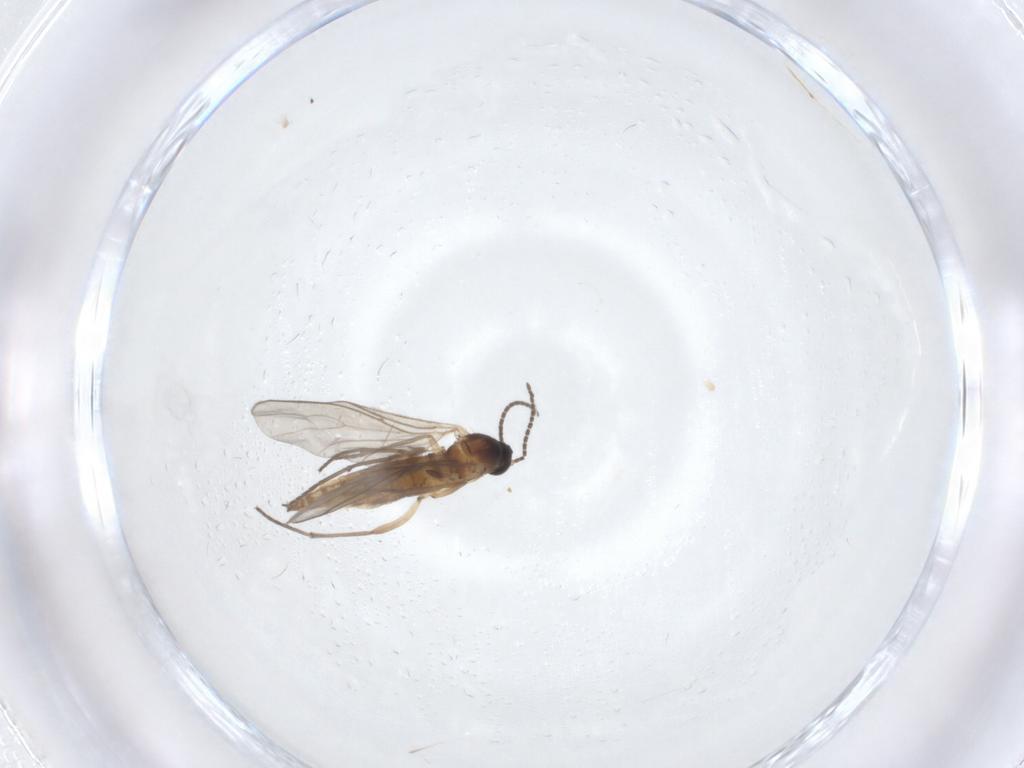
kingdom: Animalia
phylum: Arthropoda
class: Insecta
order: Diptera
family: Sciaridae
